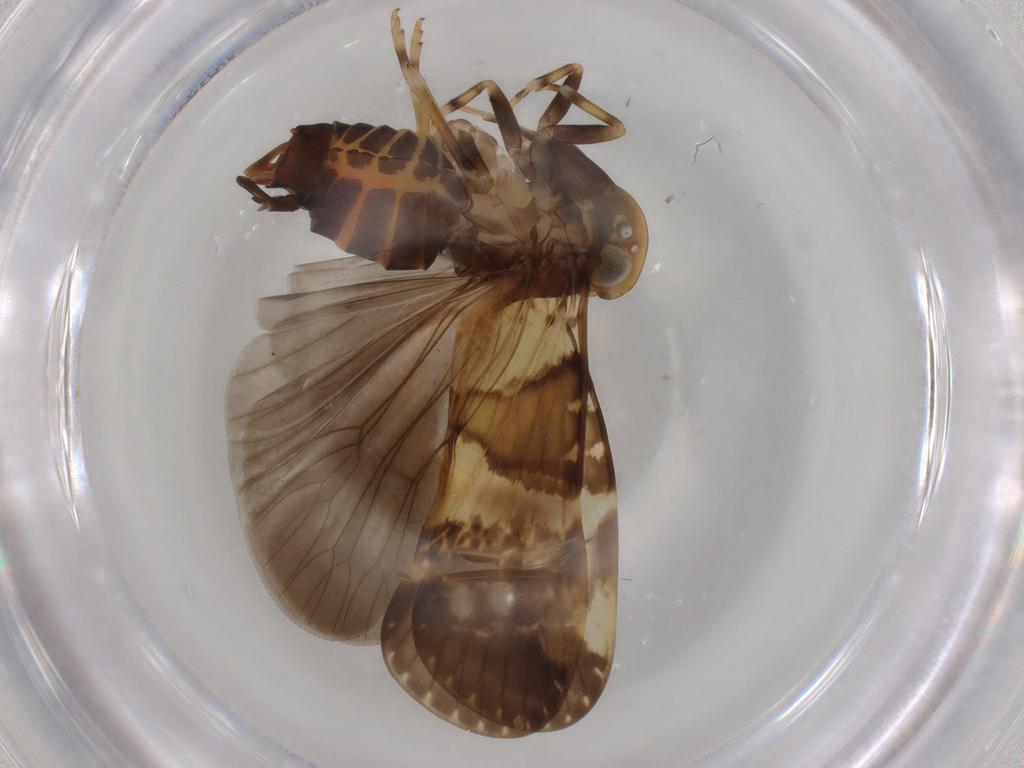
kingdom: Animalia
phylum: Arthropoda
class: Insecta
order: Hemiptera
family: Cixiidae
